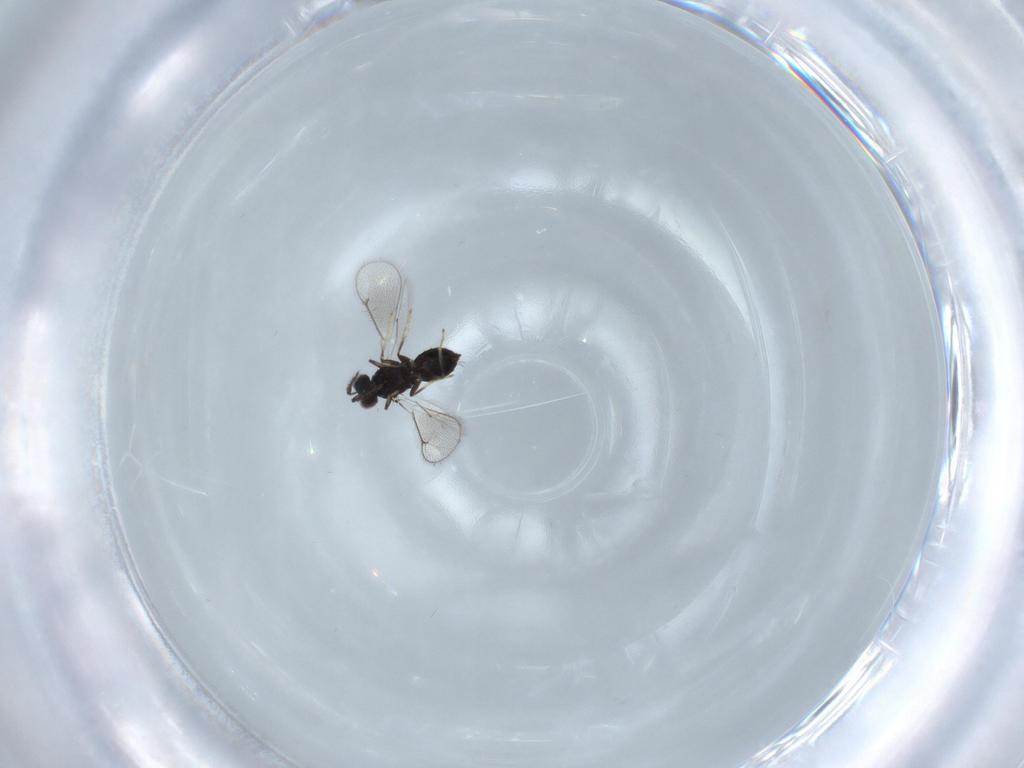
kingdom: Animalia
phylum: Arthropoda
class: Insecta
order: Hymenoptera
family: Eulophidae
